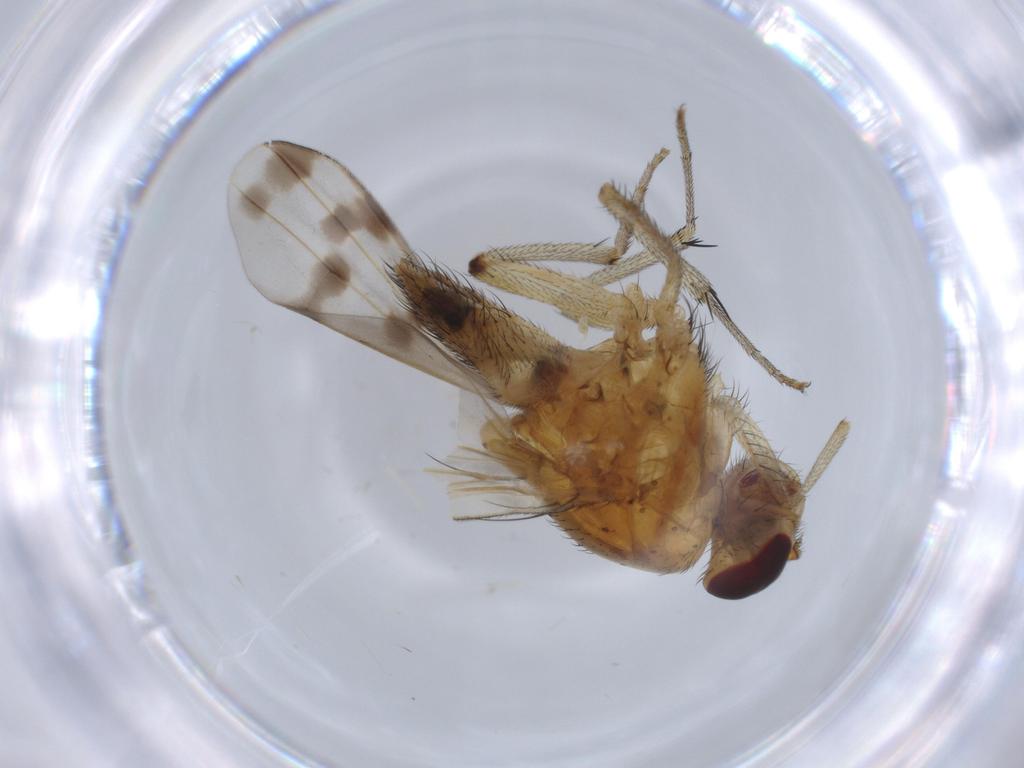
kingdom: Animalia
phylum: Arthropoda
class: Insecta
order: Diptera
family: Lauxaniidae
